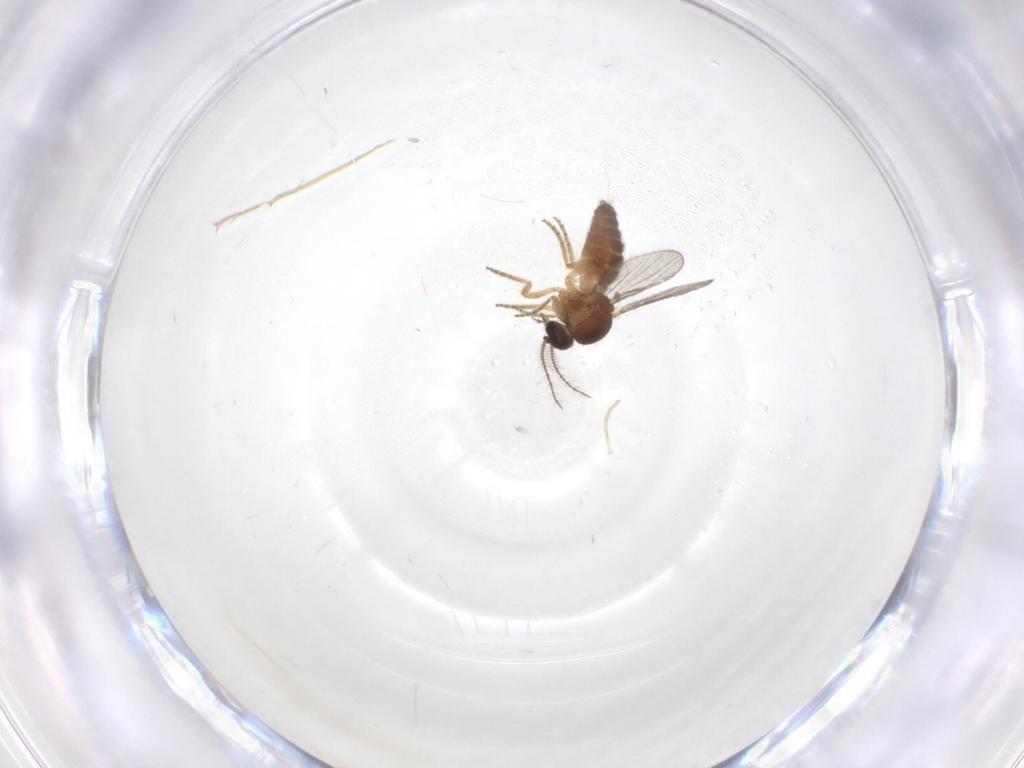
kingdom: Animalia
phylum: Arthropoda
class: Insecta
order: Diptera
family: Ceratopogonidae
